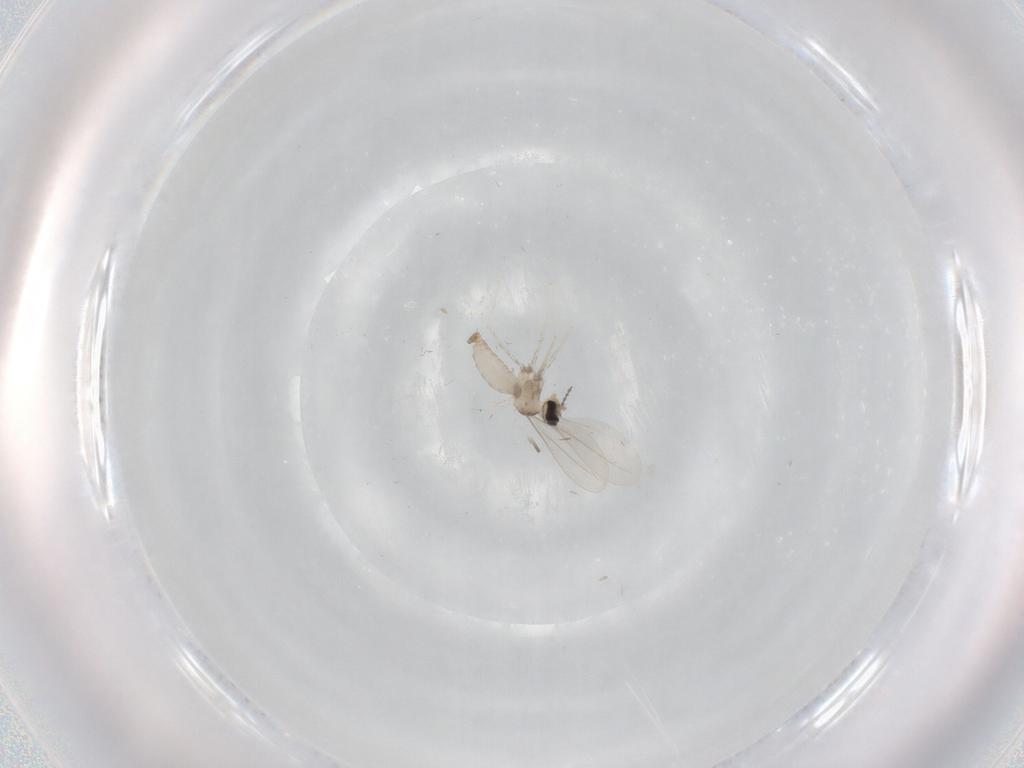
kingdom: Animalia
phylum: Arthropoda
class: Insecta
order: Diptera
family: Cecidomyiidae
